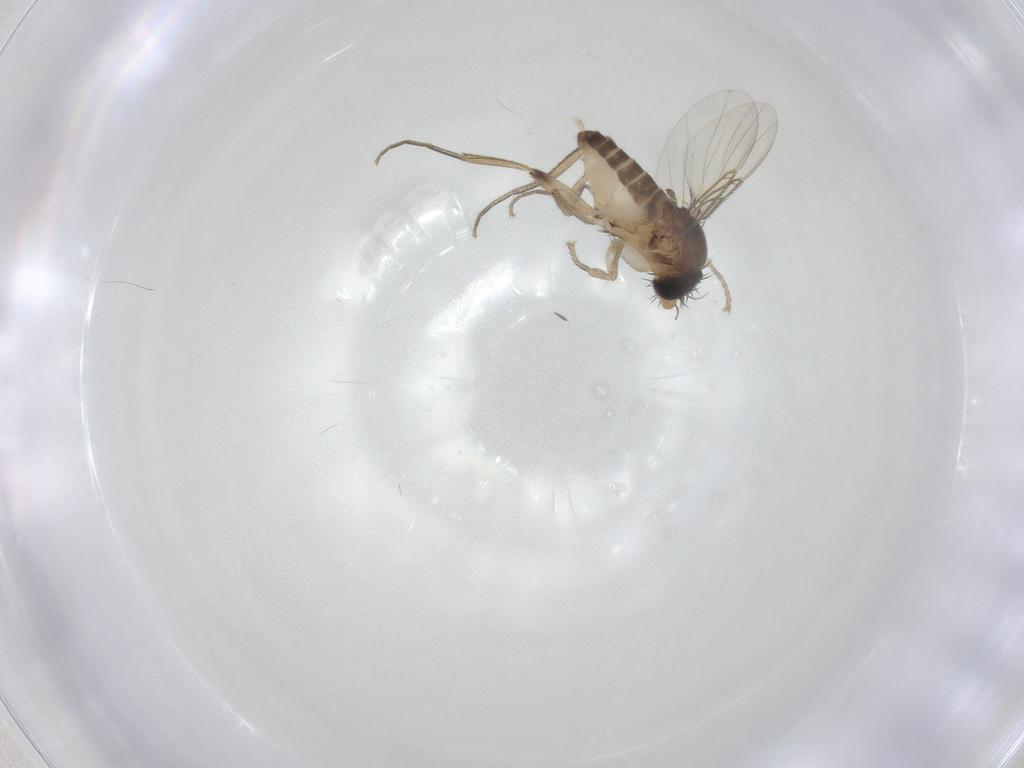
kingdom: Animalia
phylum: Arthropoda
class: Insecta
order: Diptera
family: Phoridae
